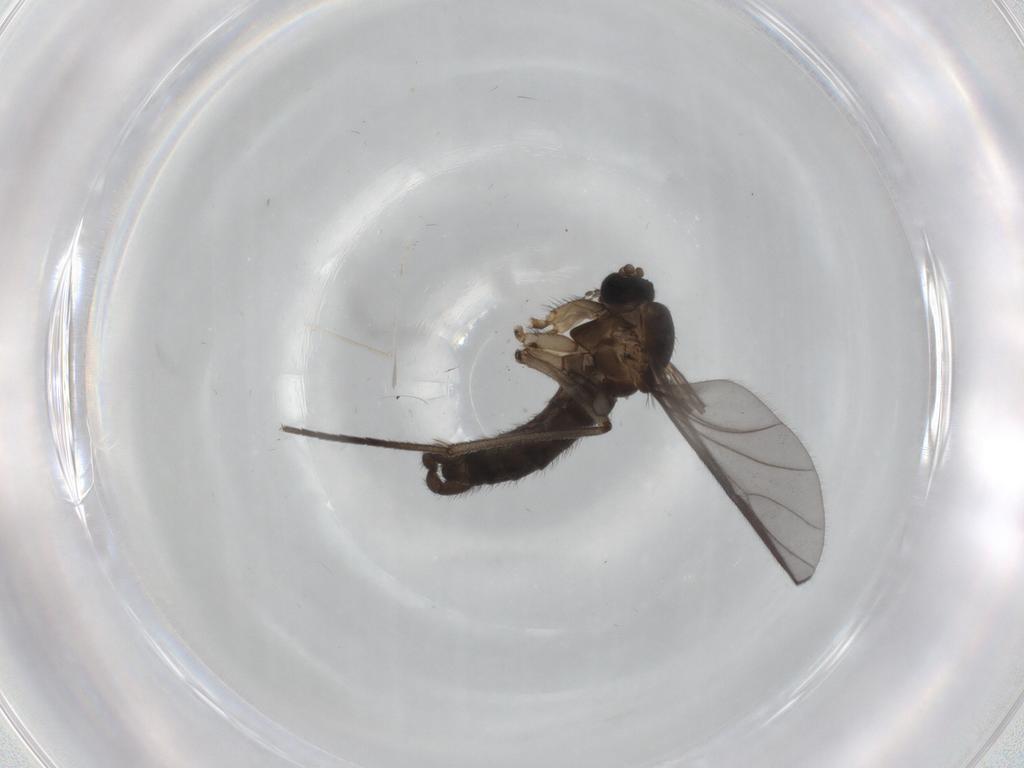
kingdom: Animalia
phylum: Arthropoda
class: Insecta
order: Diptera
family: Sciaridae
